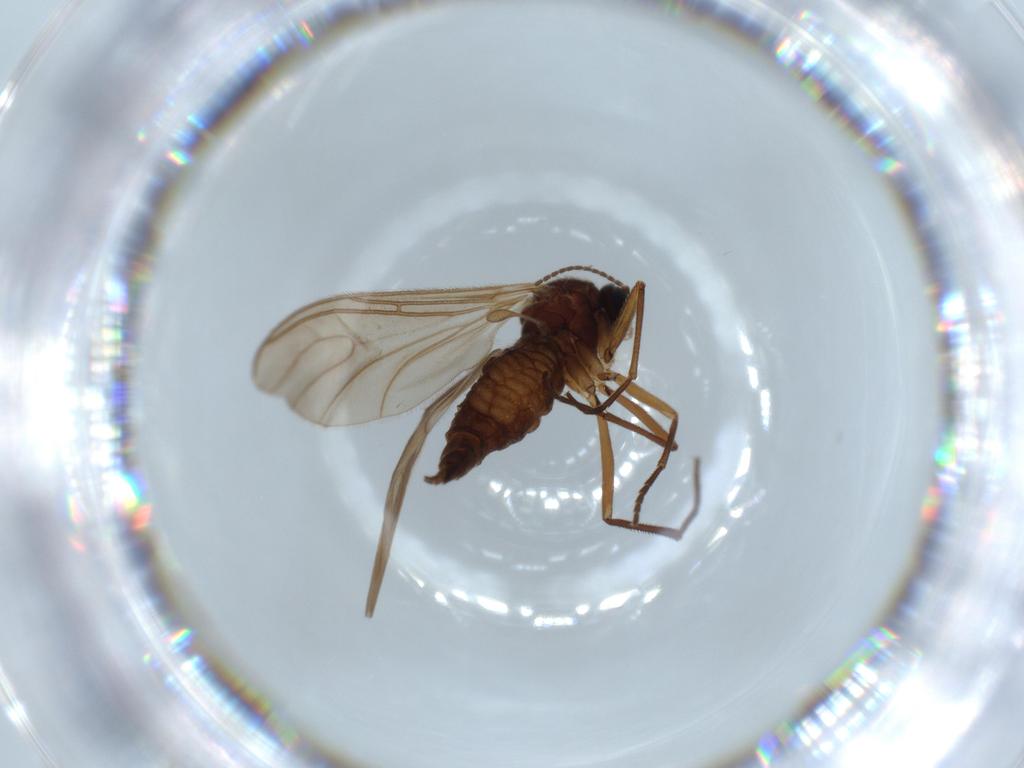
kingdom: Animalia
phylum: Arthropoda
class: Insecta
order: Diptera
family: Sciaridae
